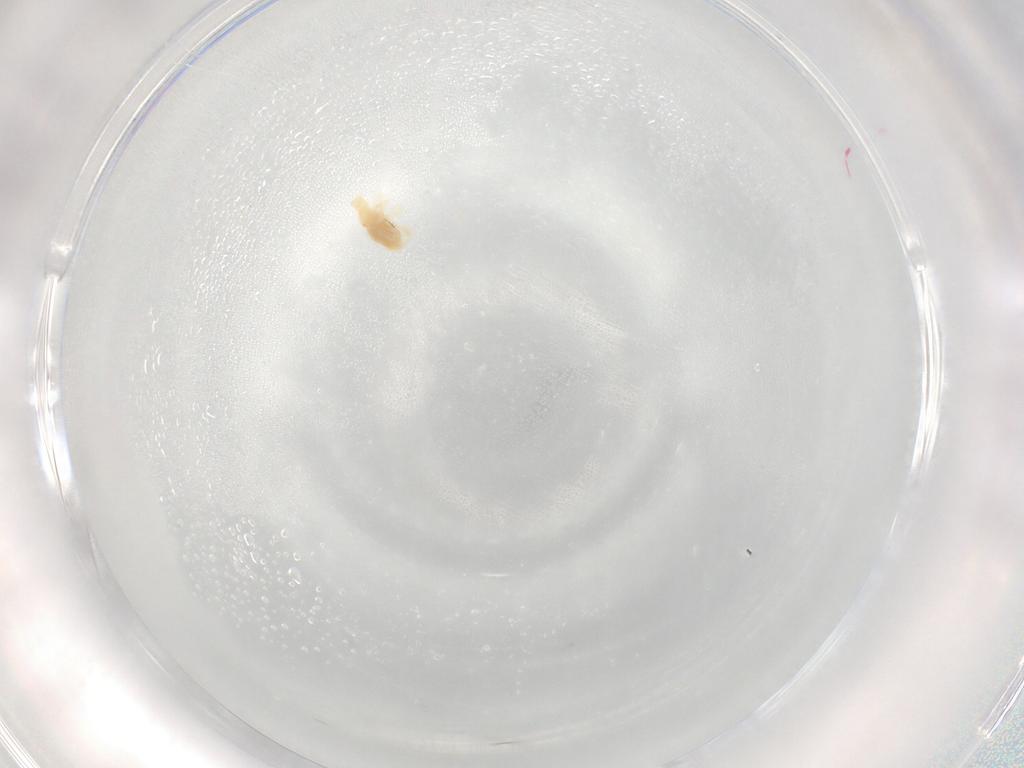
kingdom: Animalia
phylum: Arthropoda
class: Arachnida
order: Trombidiformes
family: Bdellidae
